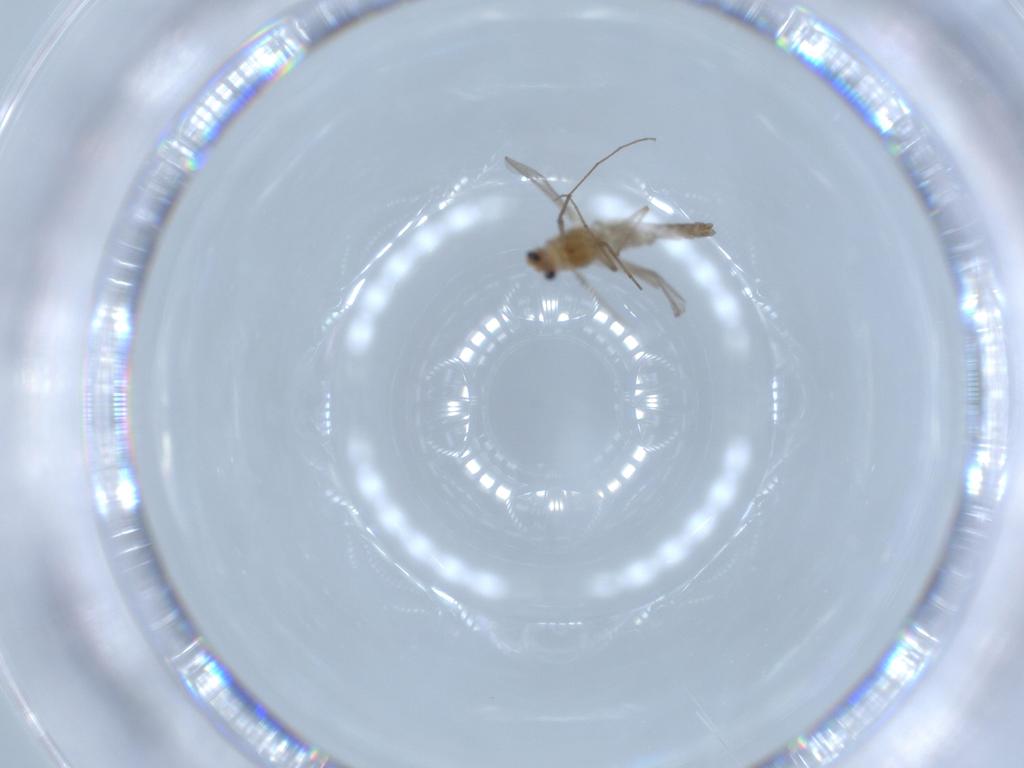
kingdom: Animalia
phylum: Arthropoda
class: Insecta
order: Diptera
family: Chironomidae
